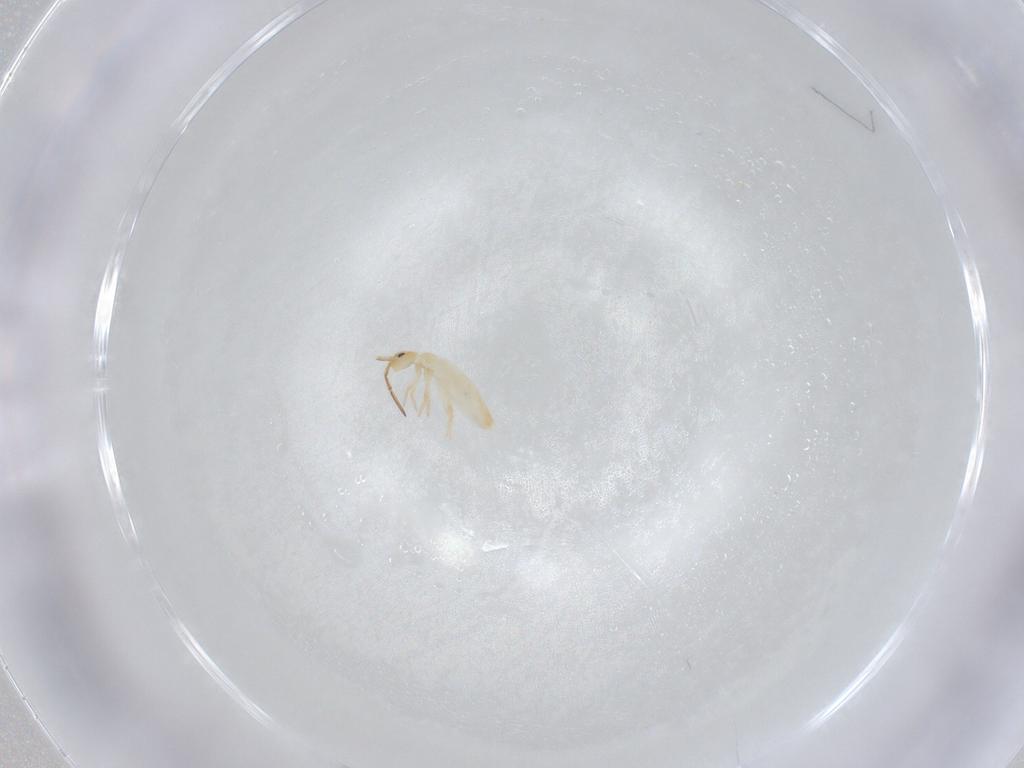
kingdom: Animalia
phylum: Arthropoda
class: Collembola
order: Entomobryomorpha
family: Entomobryidae
